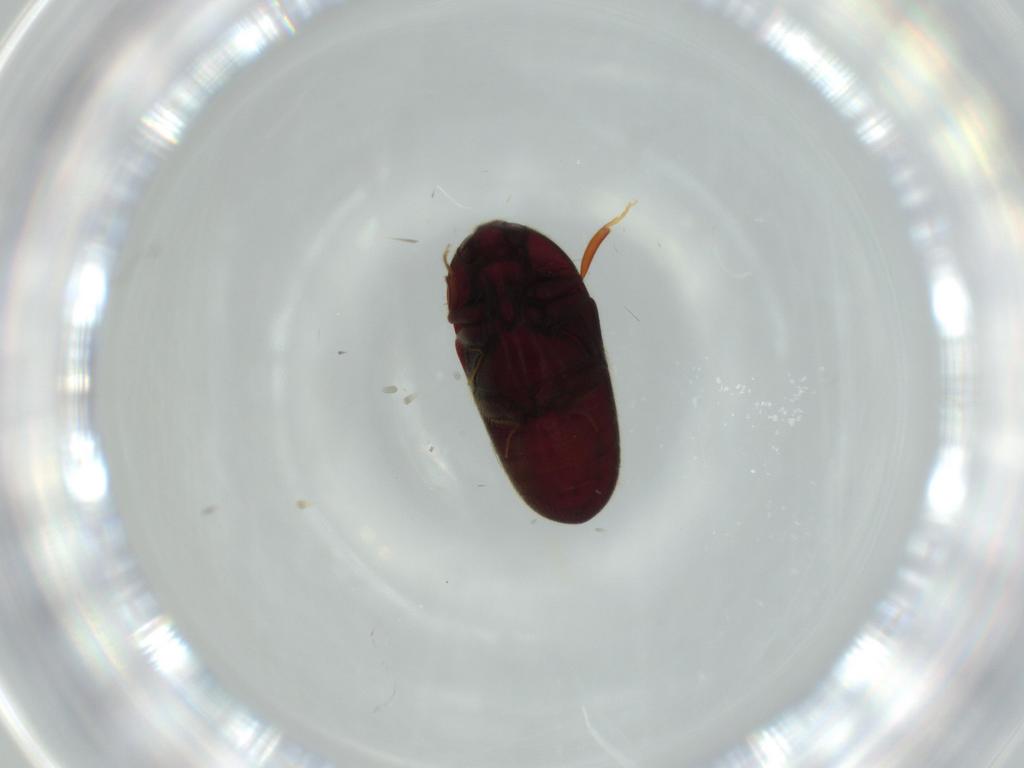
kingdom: Animalia
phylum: Arthropoda
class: Insecta
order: Coleoptera
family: Throscidae
